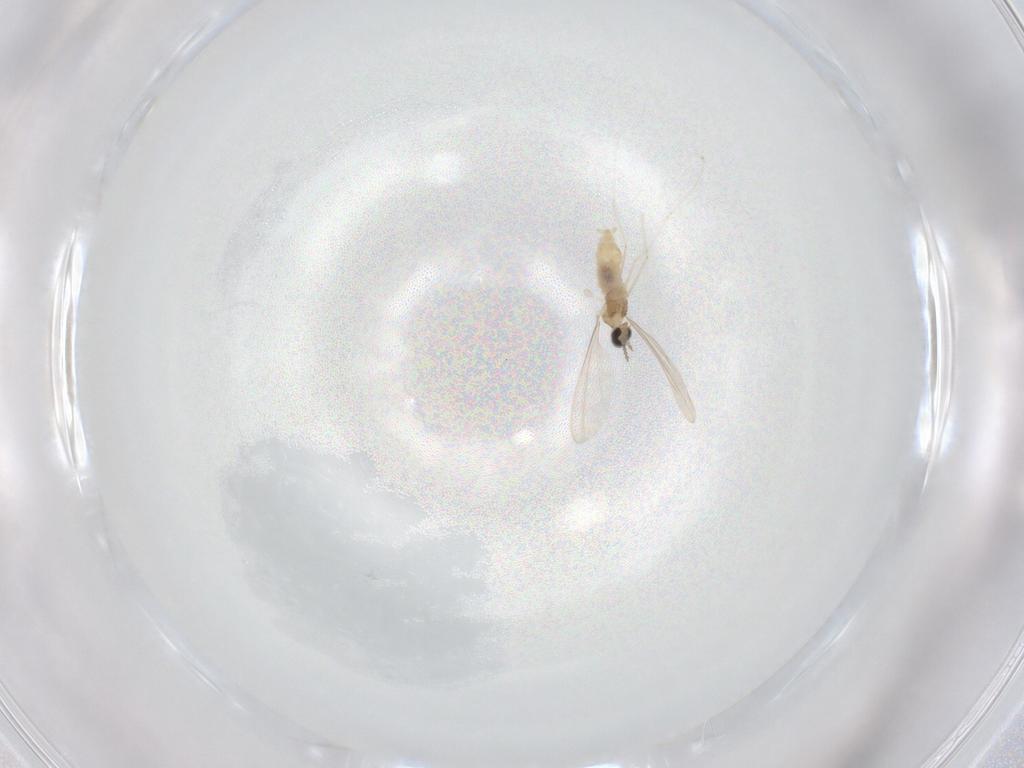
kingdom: Animalia
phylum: Arthropoda
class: Insecta
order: Diptera
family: Cecidomyiidae
